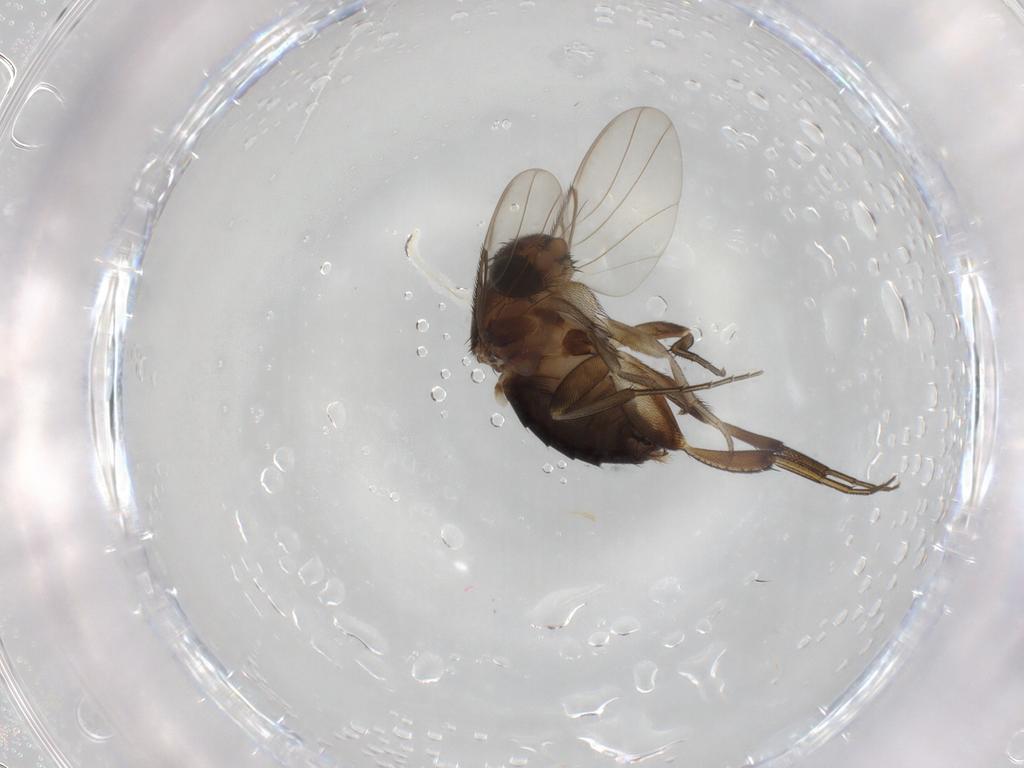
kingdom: Animalia
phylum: Arthropoda
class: Insecta
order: Diptera
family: Phoridae
